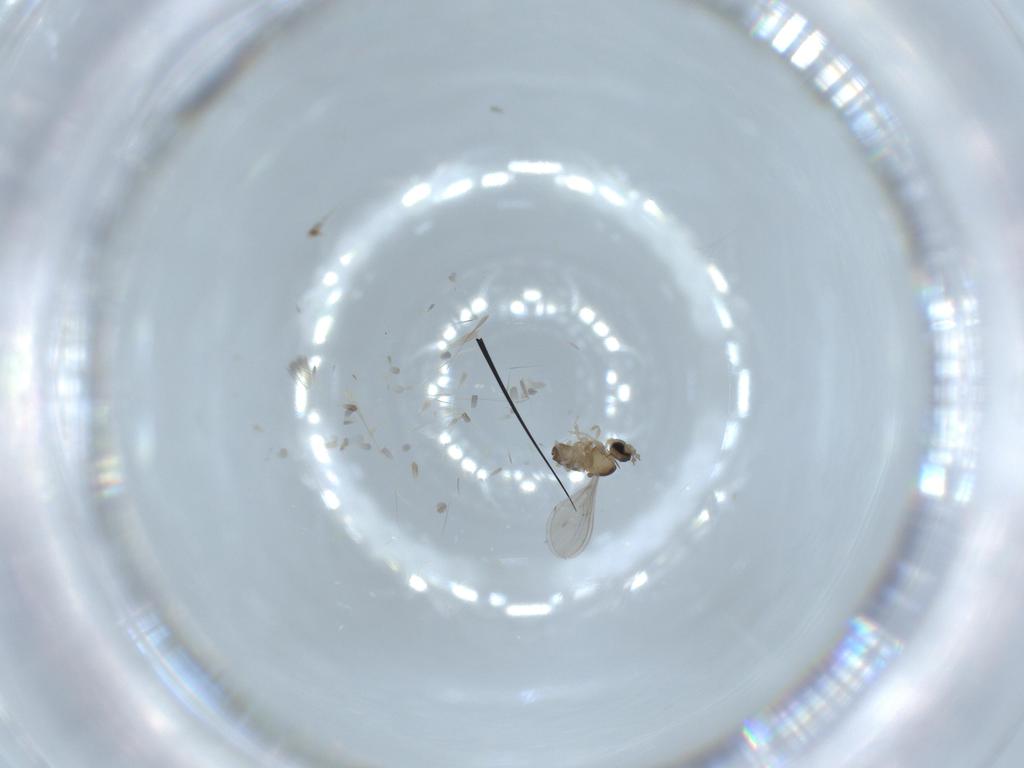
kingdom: Animalia
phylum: Arthropoda
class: Insecta
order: Diptera
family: Cecidomyiidae
